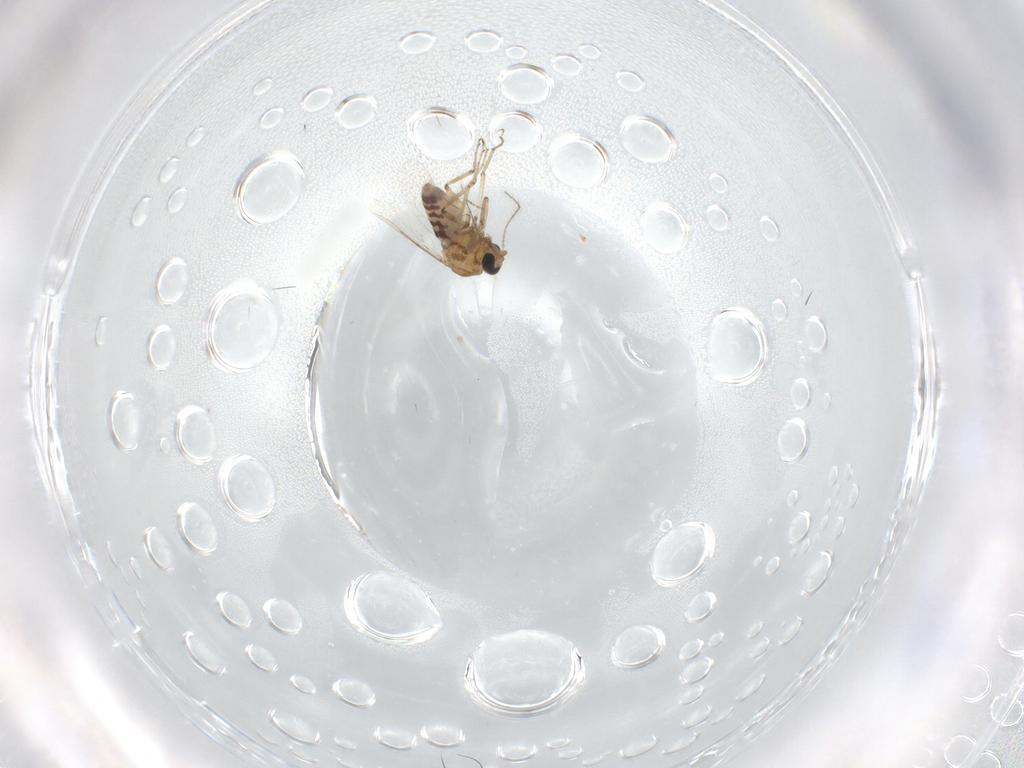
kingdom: Animalia
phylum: Arthropoda
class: Insecta
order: Diptera
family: Ceratopogonidae
